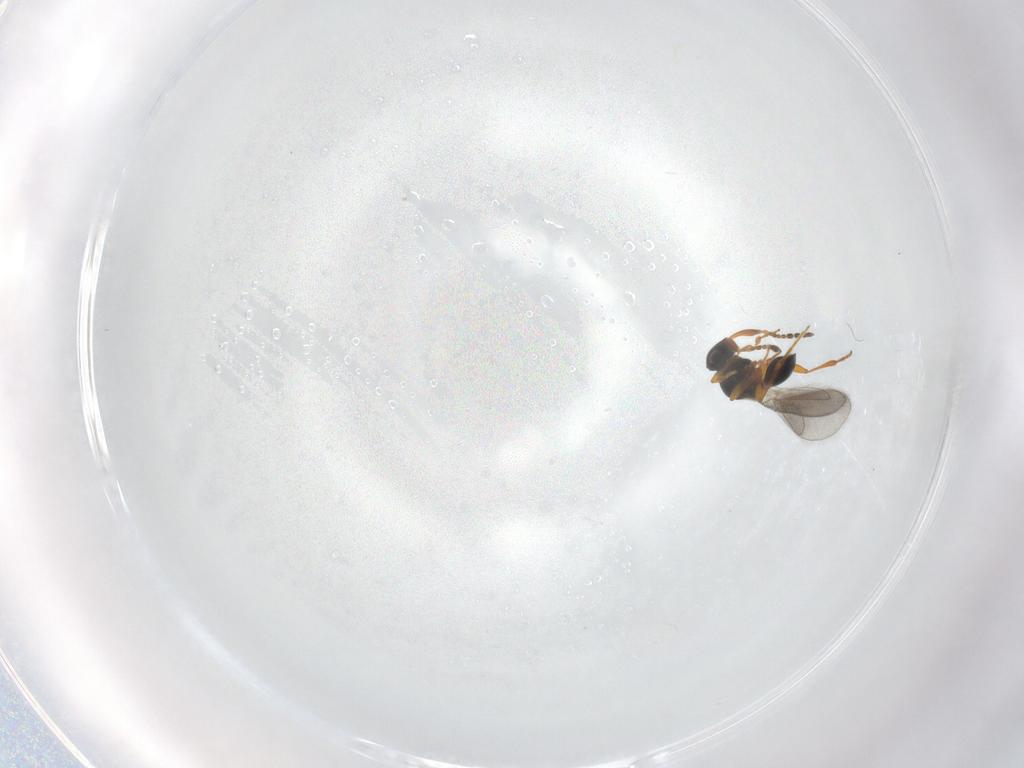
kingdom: Animalia
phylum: Arthropoda
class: Insecta
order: Hymenoptera
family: Platygastridae
